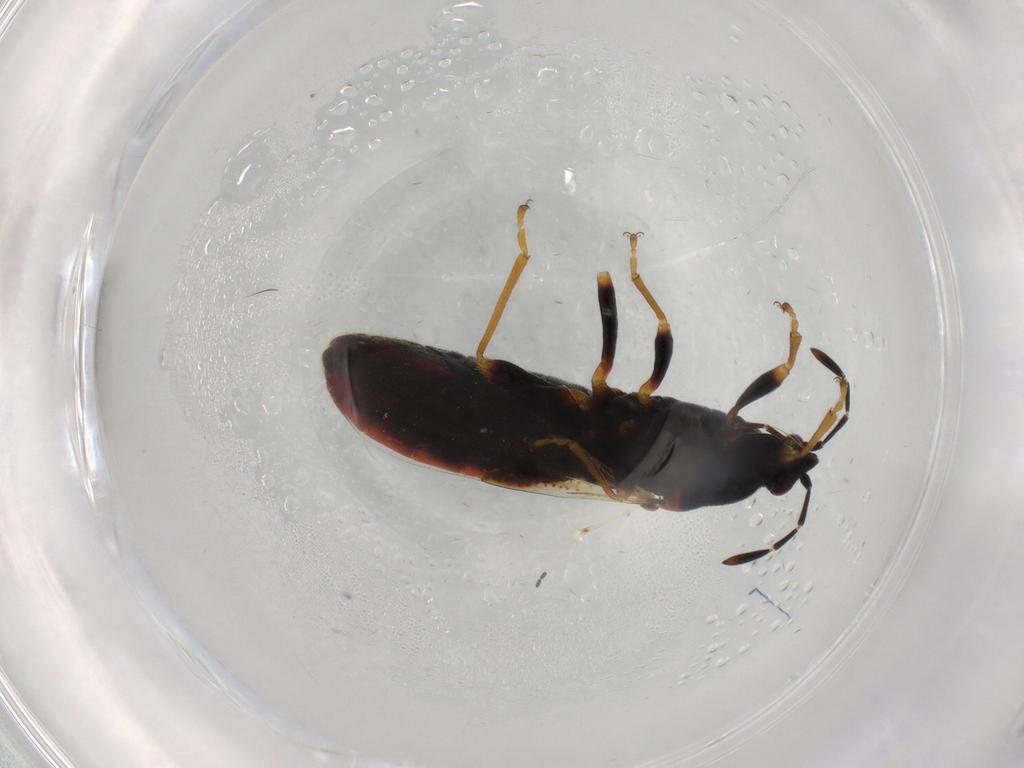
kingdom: Animalia
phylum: Arthropoda
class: Insecta
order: Hemiptera
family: Blissidae
